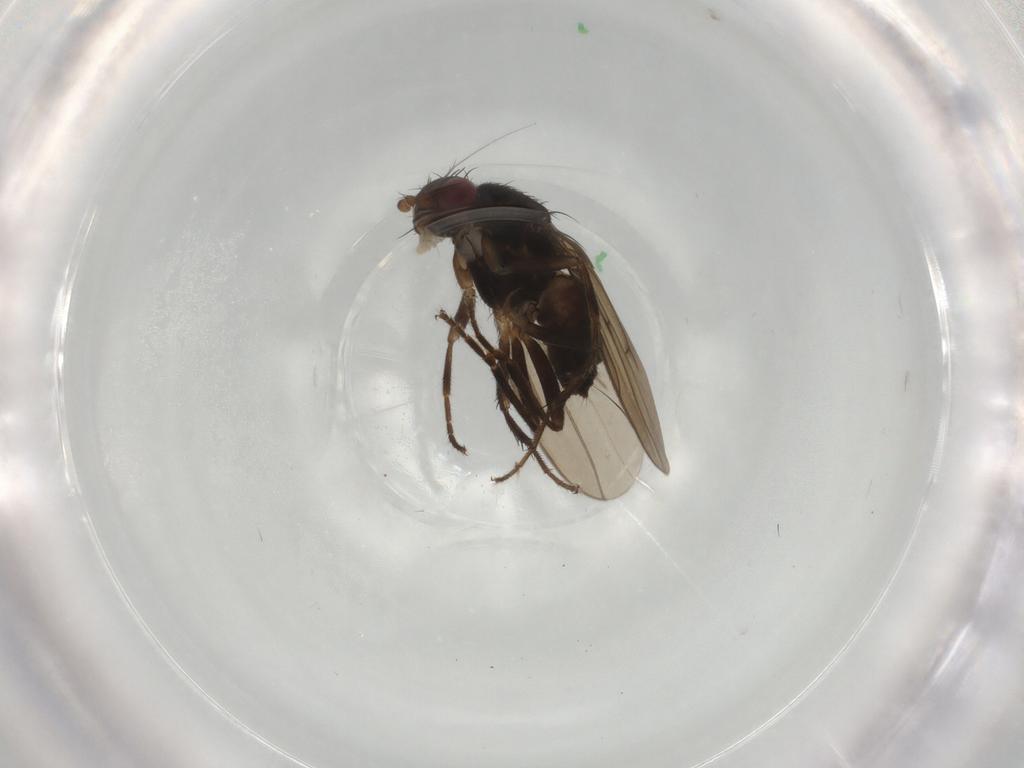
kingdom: Animalia
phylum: Arthropoda
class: Insecta
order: Diptera
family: Sphaeroceridae
